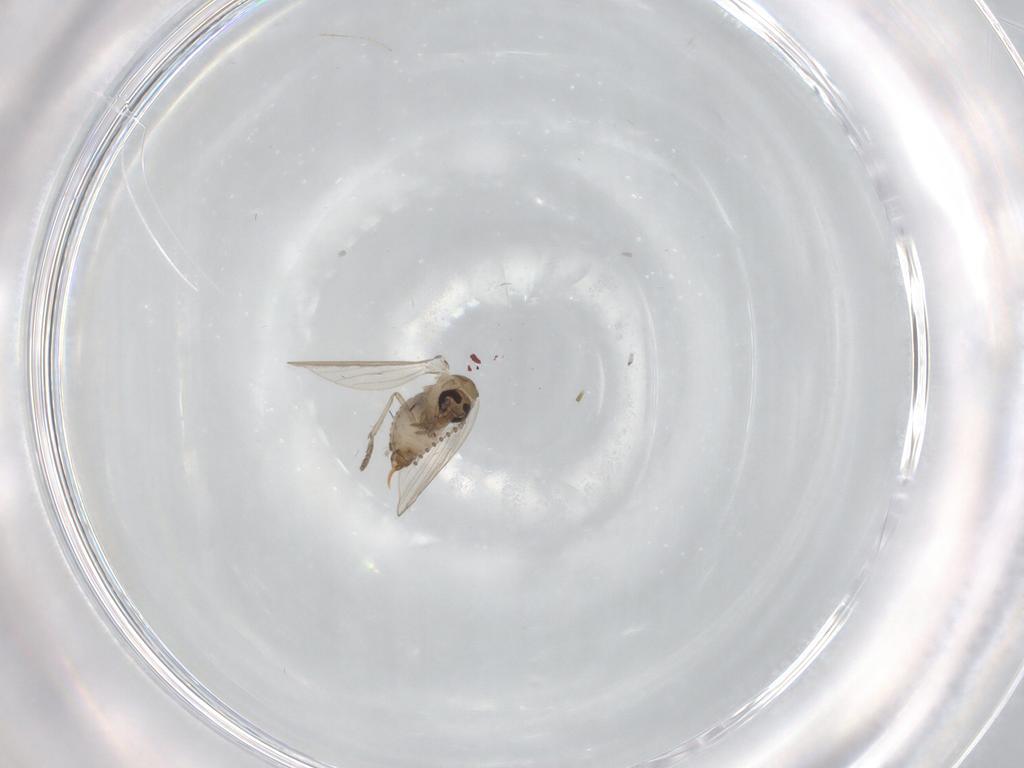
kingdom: Animalia
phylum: Arthropoda
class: Insecta
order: Diptera
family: Psychodidae
